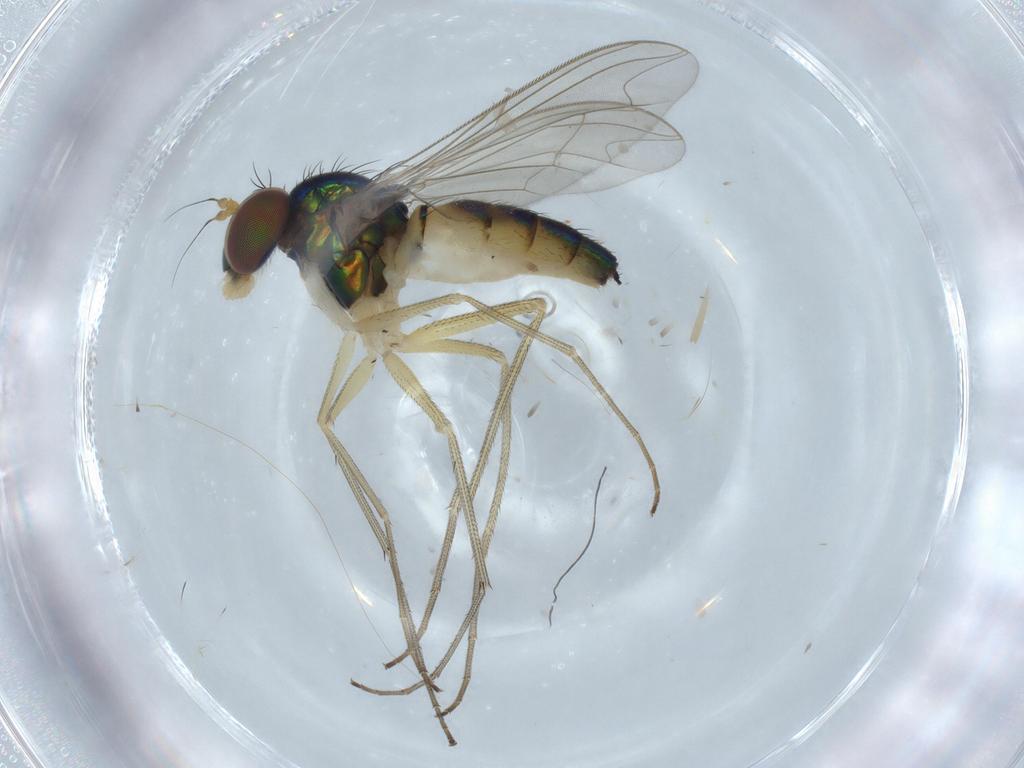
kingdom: Animalia
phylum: Arthropoda
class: Insecta
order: Diptera
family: Dolichopodidae
